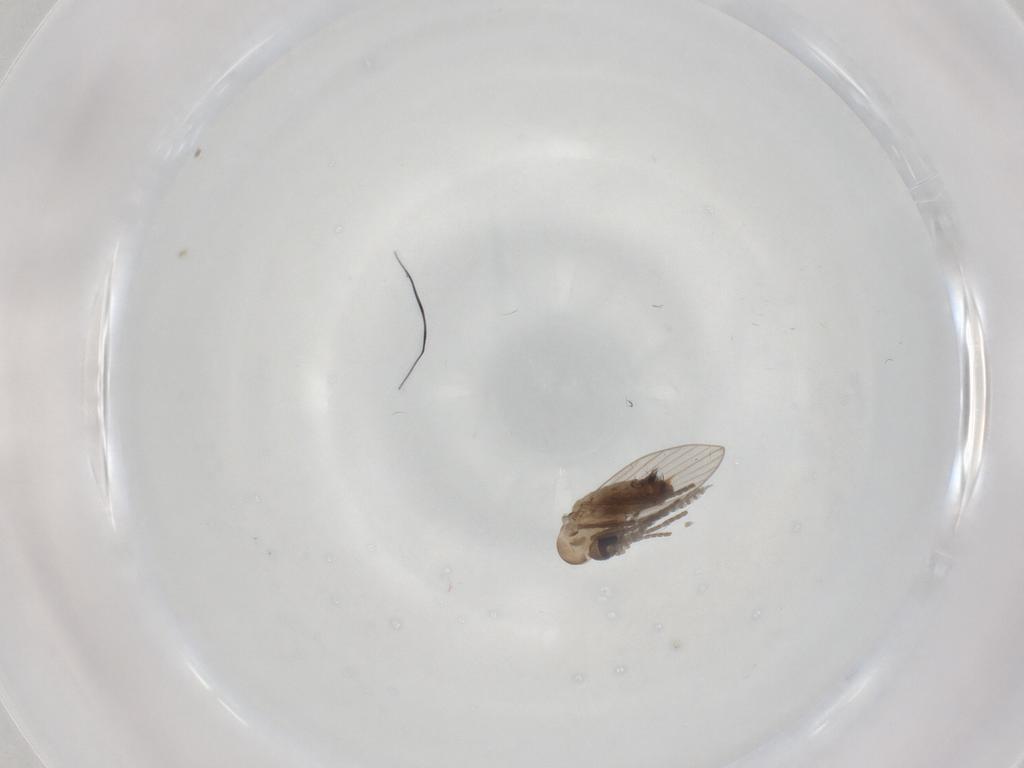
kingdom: Animalia
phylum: Arthropoda
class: Insecta
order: Diptera
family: Psychodidae
